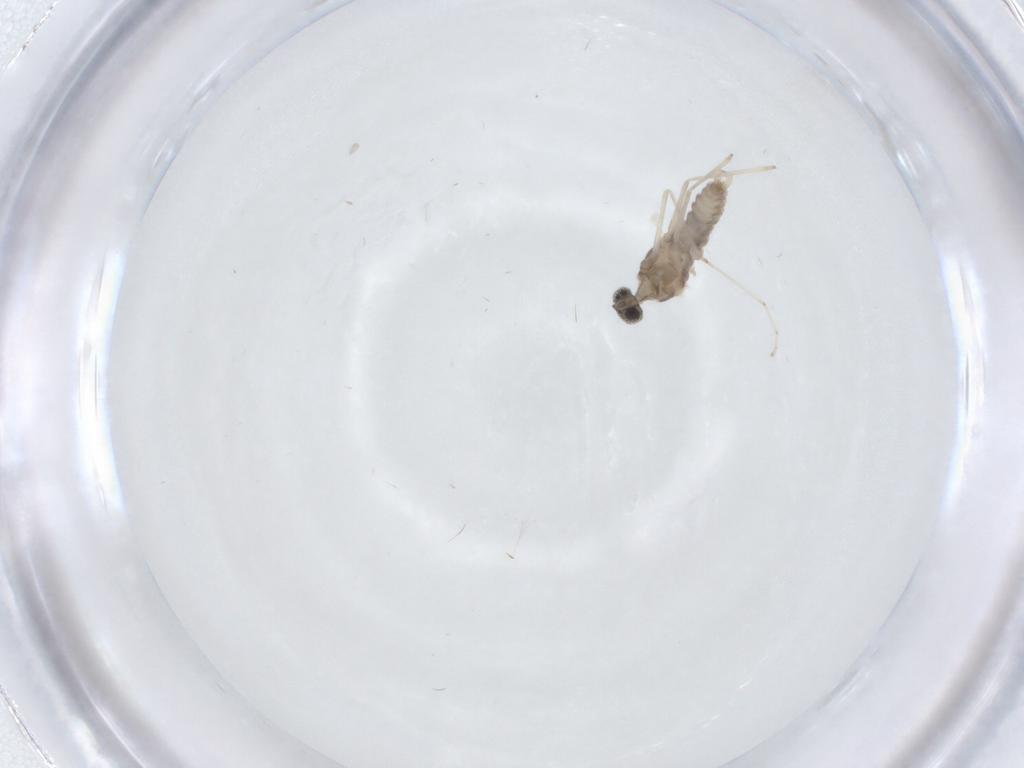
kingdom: Animalia
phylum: Arthropoda
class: Insecta
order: Diptera
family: Cecidomyiidae
